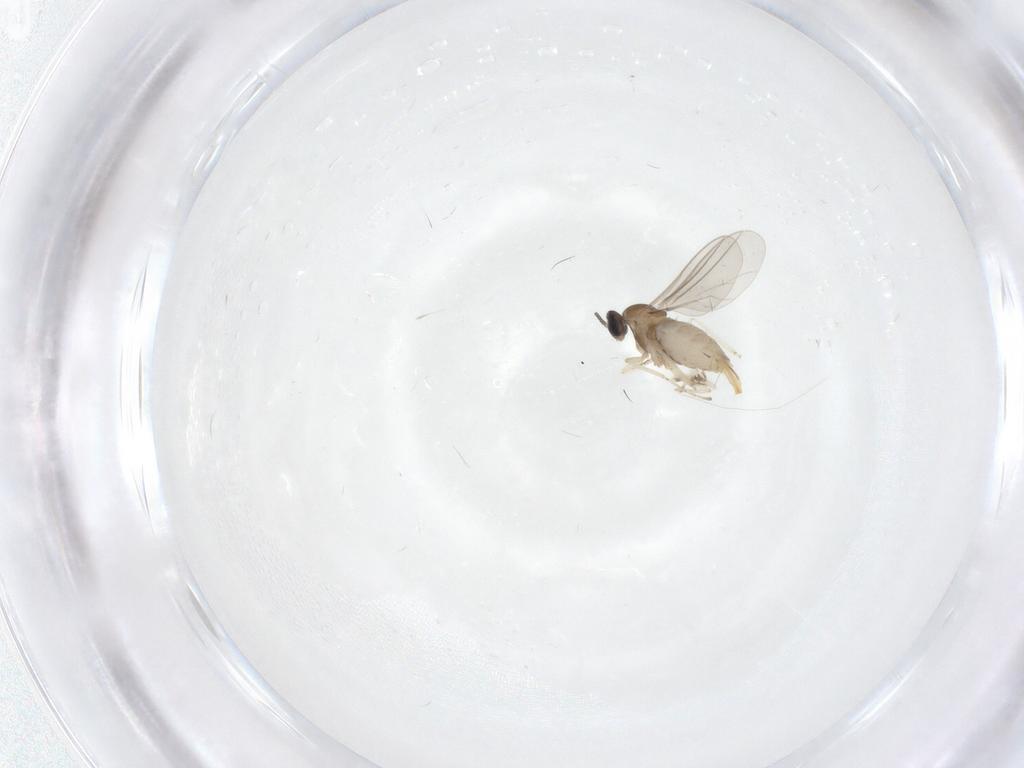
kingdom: Animalia
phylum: Arthropoda
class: Insecta
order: Diptera
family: Cecidomyiidae
